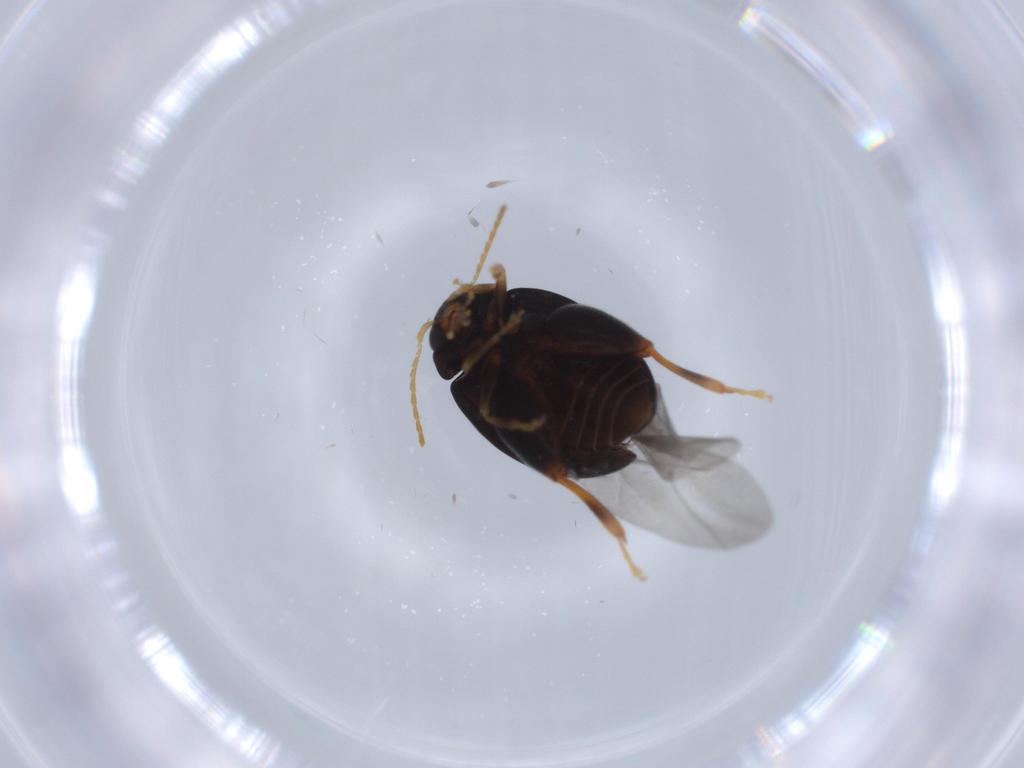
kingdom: Animalia
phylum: Arthropoda
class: Insecta
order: Coleoptera
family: Chrysomelidae
